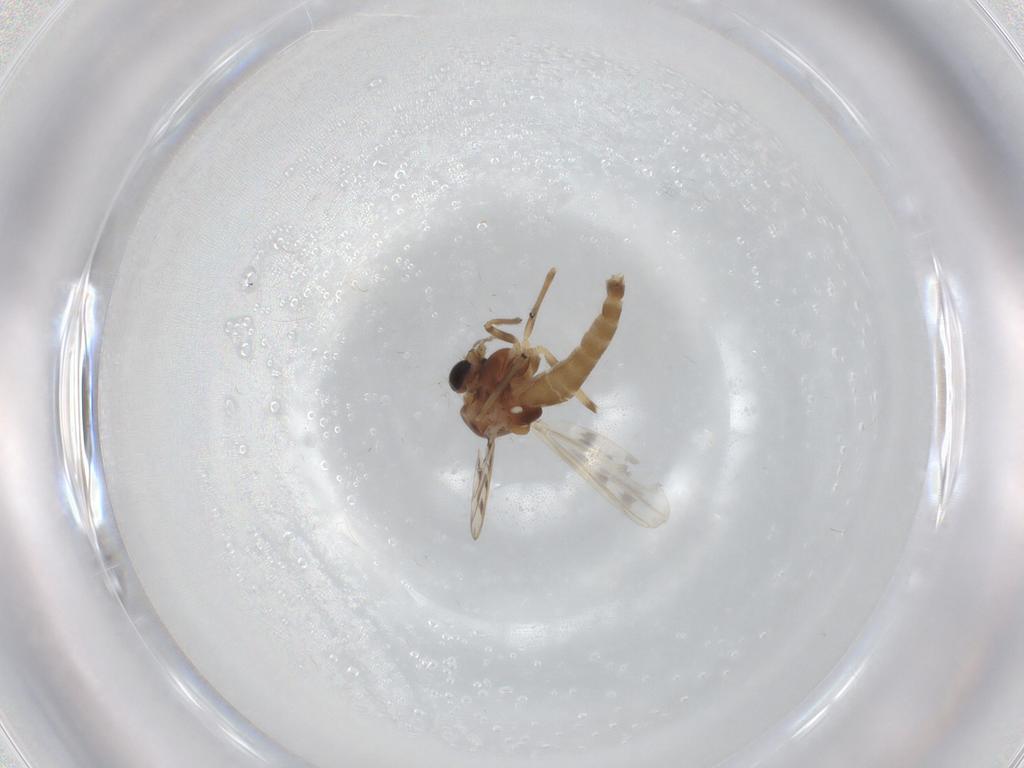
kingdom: Animalia
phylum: Arthropoda
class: Insecta
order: Diptera
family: Chironomidae
